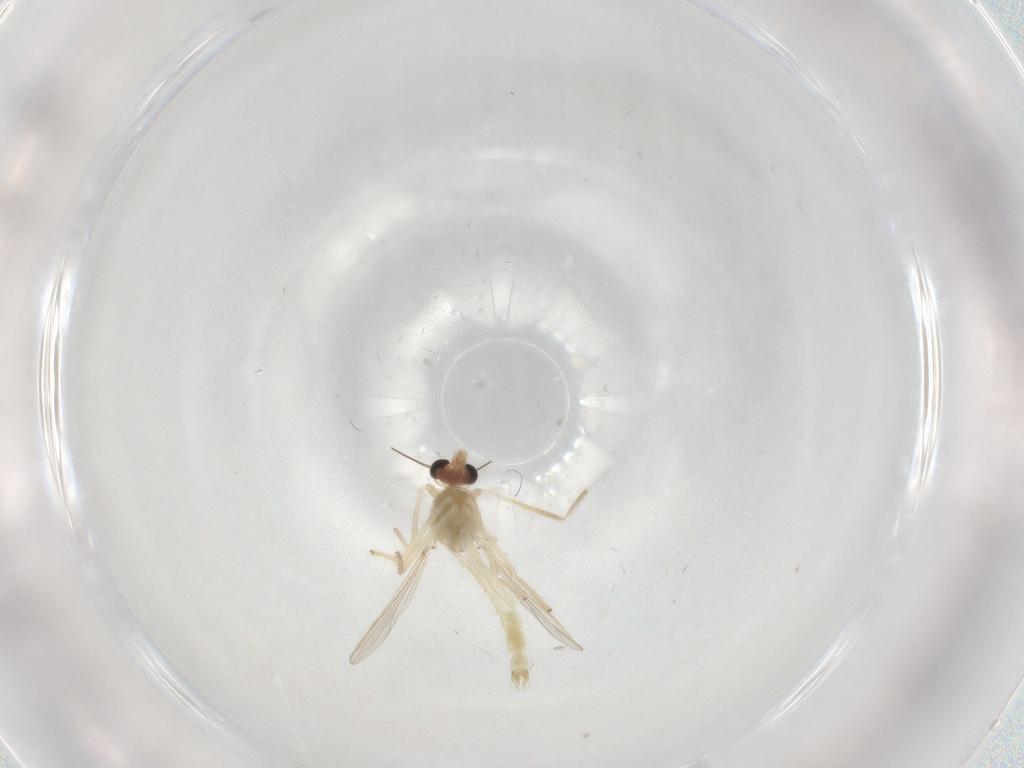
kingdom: Animalia
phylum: Arthropoda
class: Insecta
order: Diptera
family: Ceratopogonidae
